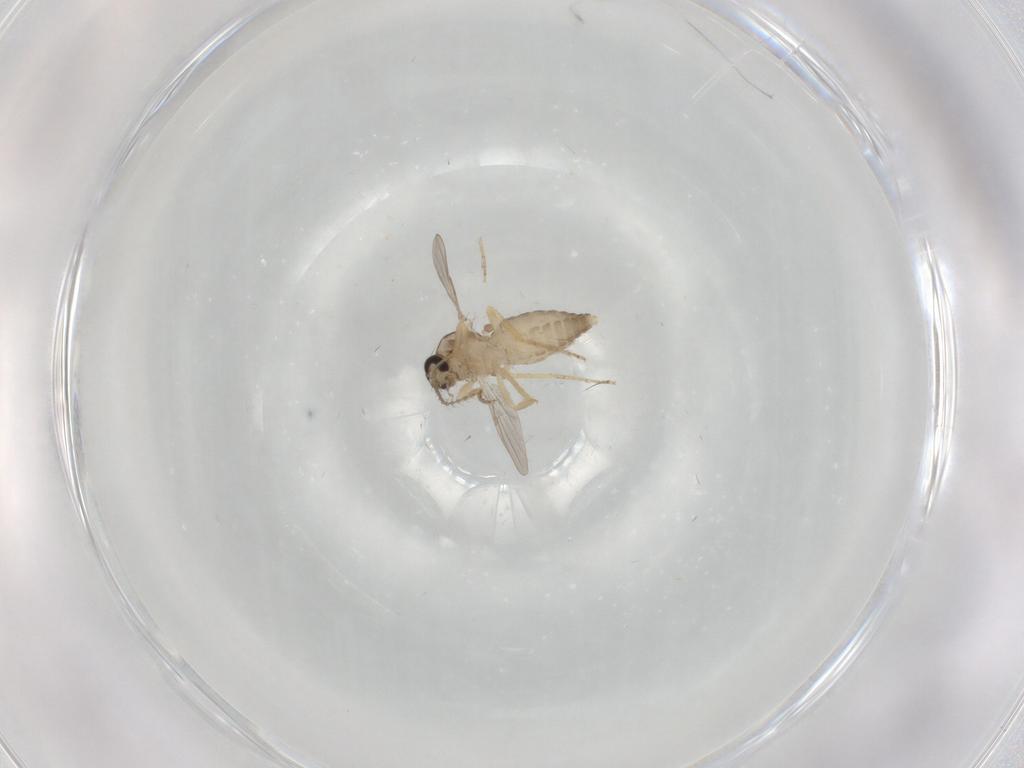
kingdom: Animalia
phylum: Arthropoda
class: Insecta
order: Diptera
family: Ceratopogonidae
